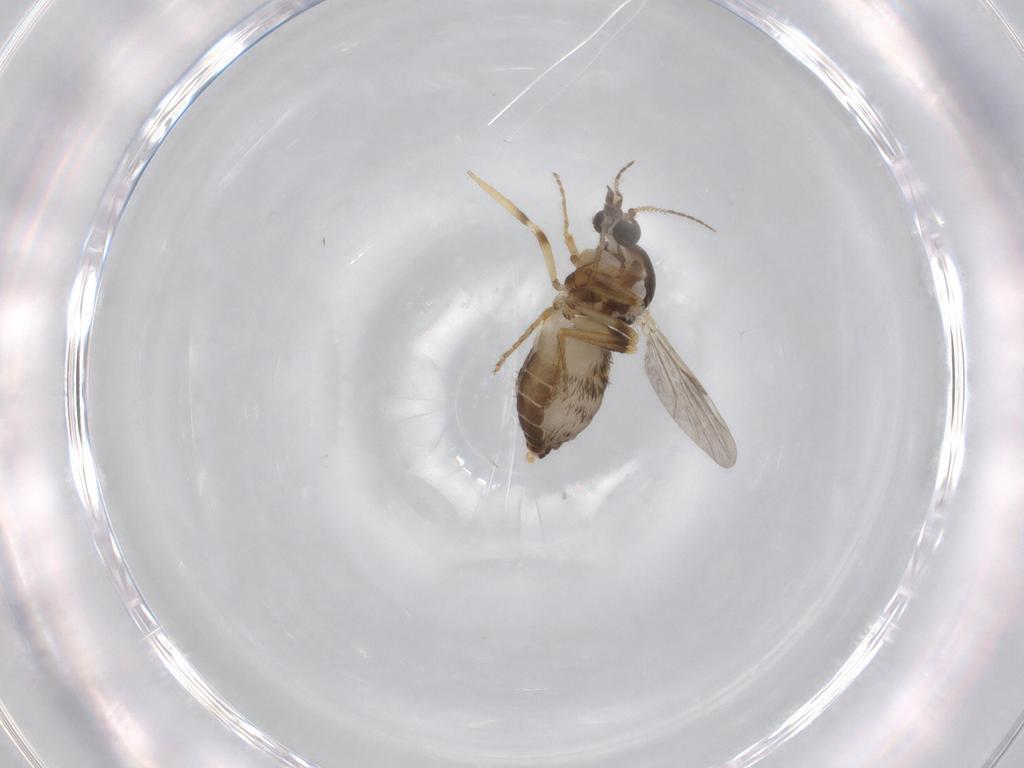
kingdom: Animalia
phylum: Arthropoda
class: Insecta
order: Diptera
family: Ceratopogonidae
